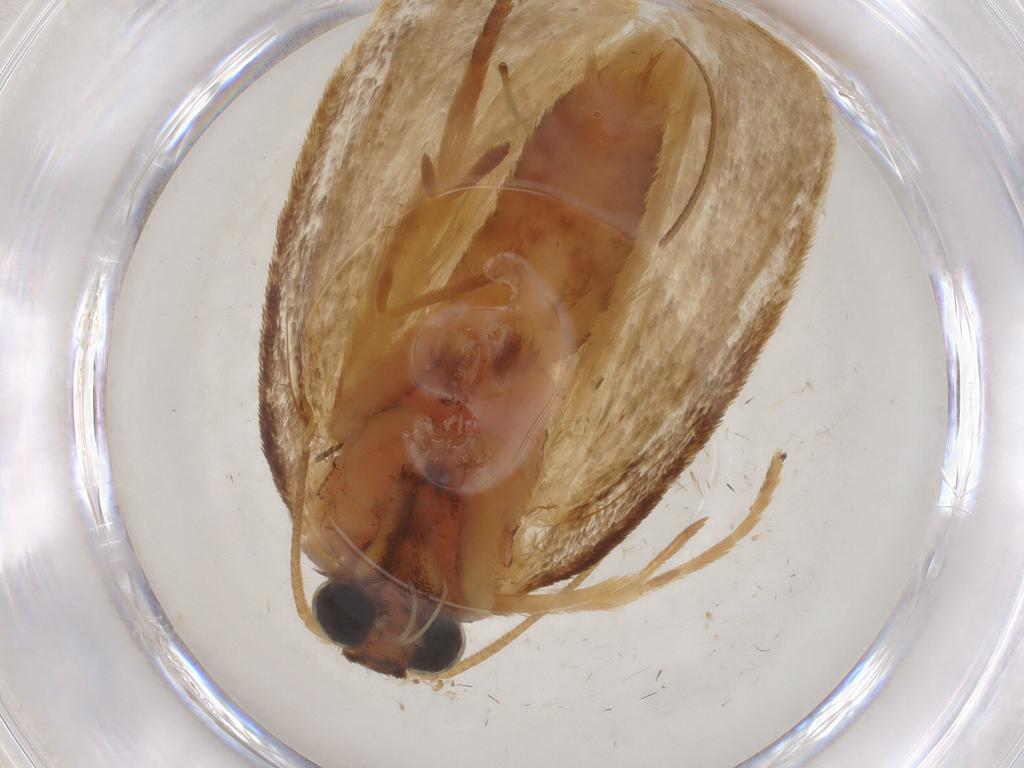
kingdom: Animalia
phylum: Arthropoda
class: Insecta
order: Lepidoptera
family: Erebidae
